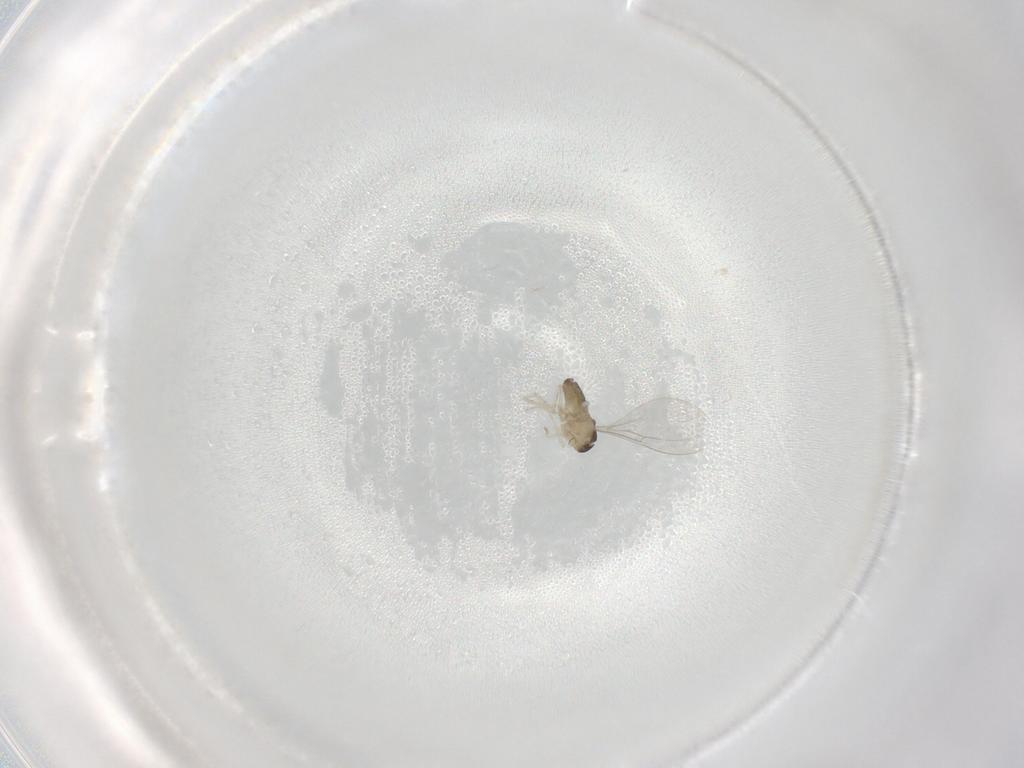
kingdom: Animalia
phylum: Arthropoda
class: Insecta
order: Diptera
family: Cecidomyiidae
